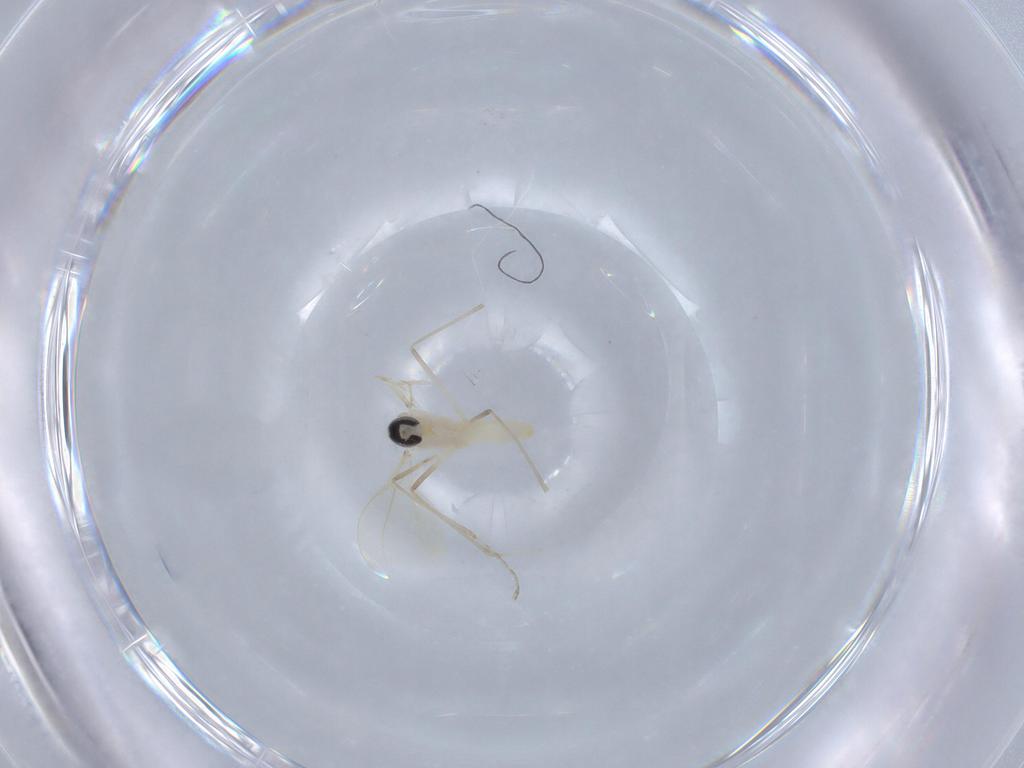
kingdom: Animalia
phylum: Arthropoda
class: Insecta
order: Diptera
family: Cecidomyiidae
